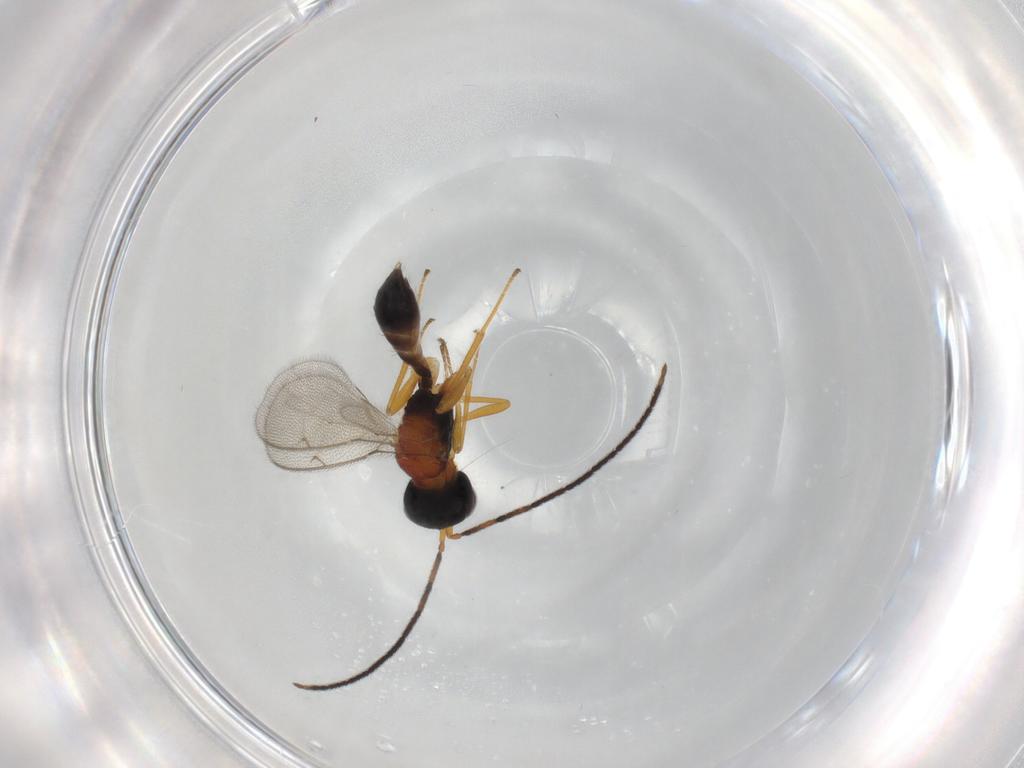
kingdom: Animalia
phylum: Arthropoda
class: Insecta
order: Hymenoptera
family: Pteromalidae
